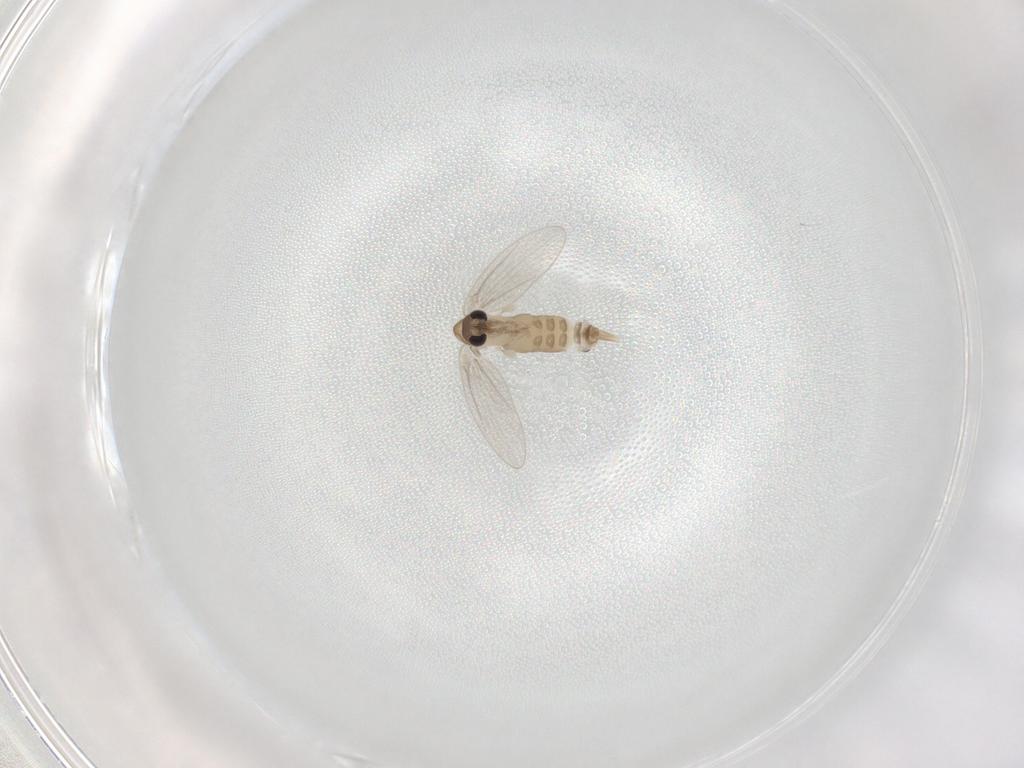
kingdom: Animalia
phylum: Arthropoda
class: Insecta
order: Diptera
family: Psychodidae
